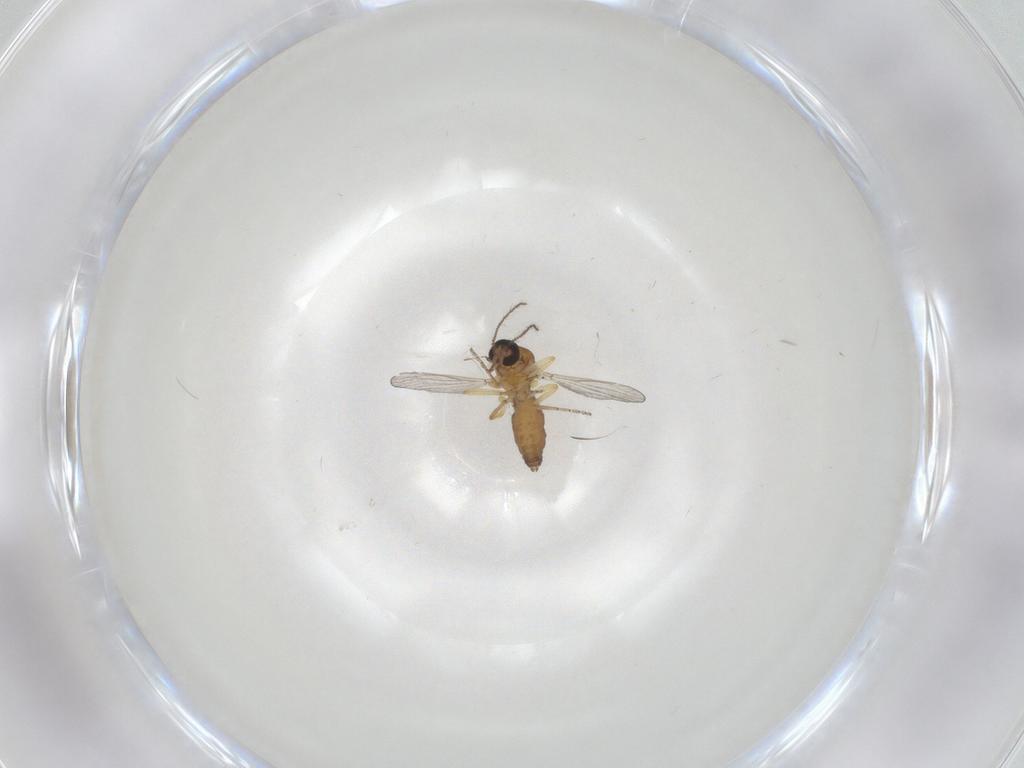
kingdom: Animalia
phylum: Arthropoda
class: Insecta
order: Diptera
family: Ceratopogonidae
